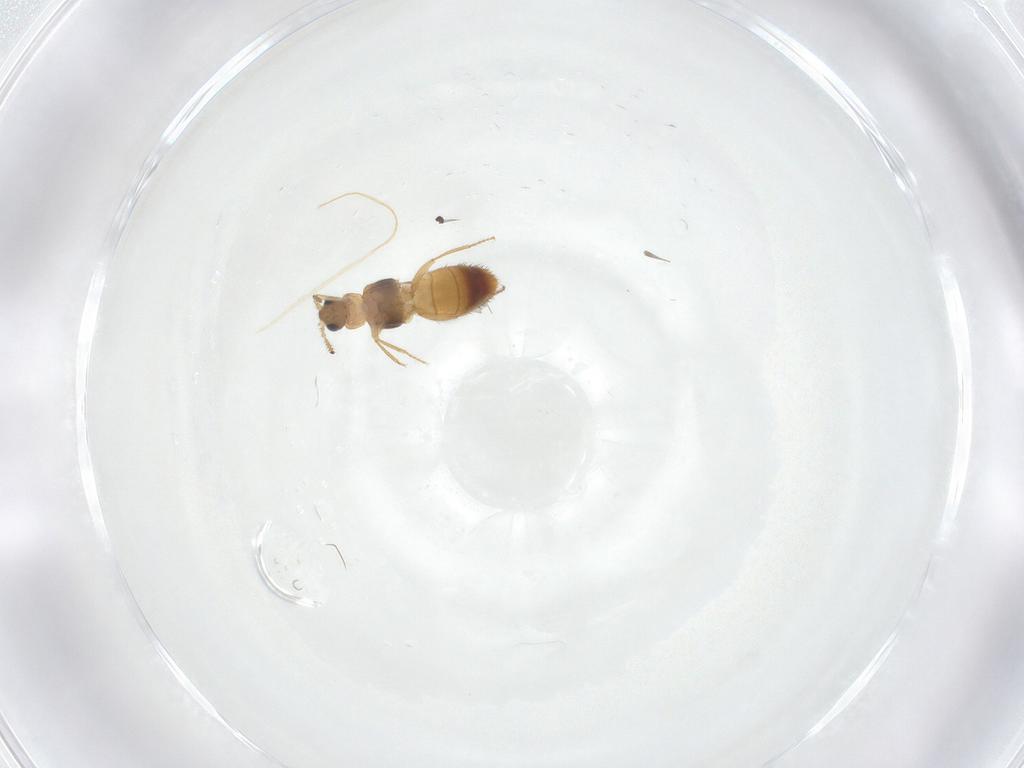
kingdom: Animalia
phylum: Arthropoda
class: Insecta
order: Coleoptera
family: Staphylinidae
